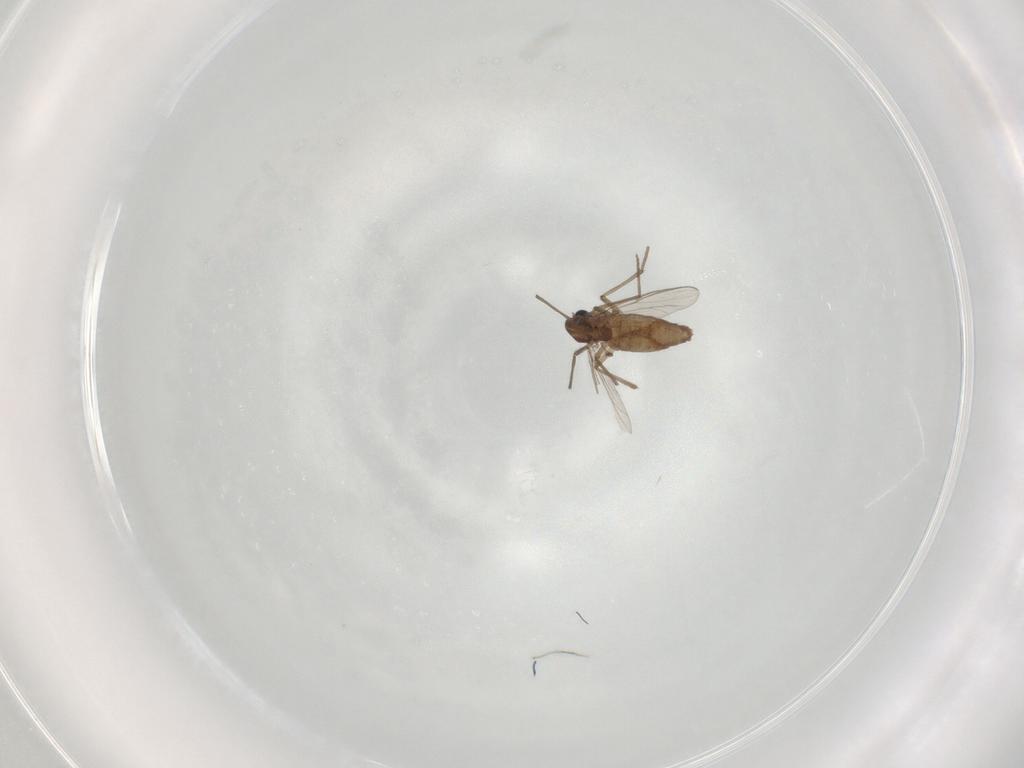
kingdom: Animalia
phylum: Arthropoda
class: Insecta
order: Diptera
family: Chironomidae
